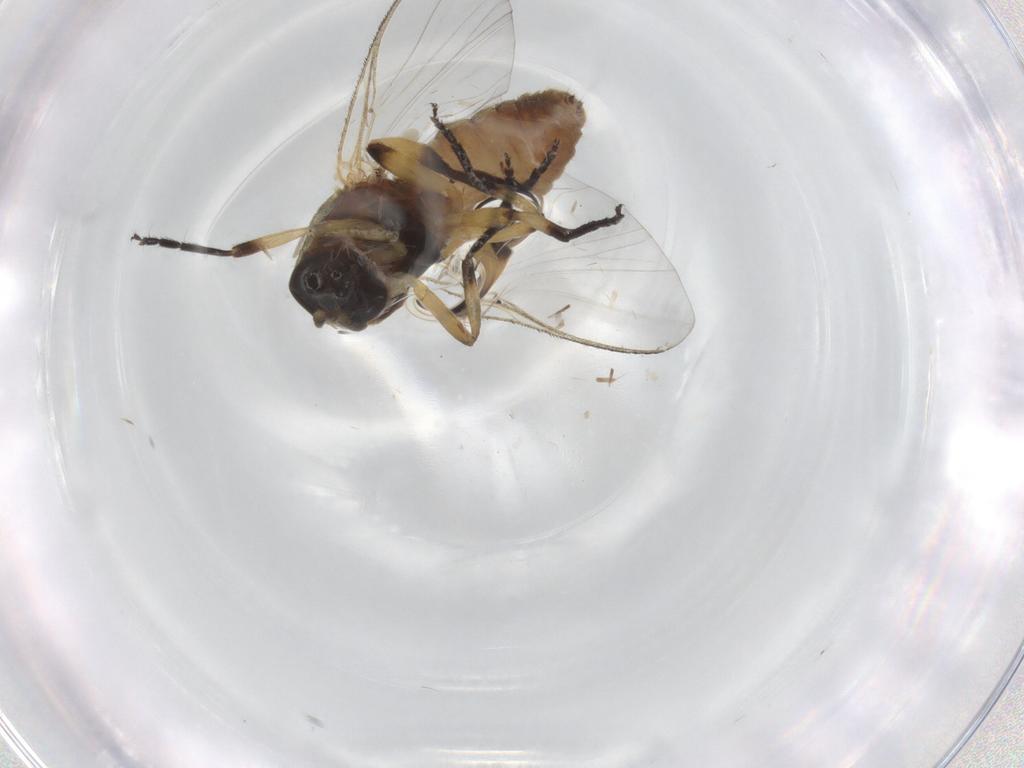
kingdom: Animalia
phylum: Arthropoda
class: Insecta
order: Diptera
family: Simuliidae
